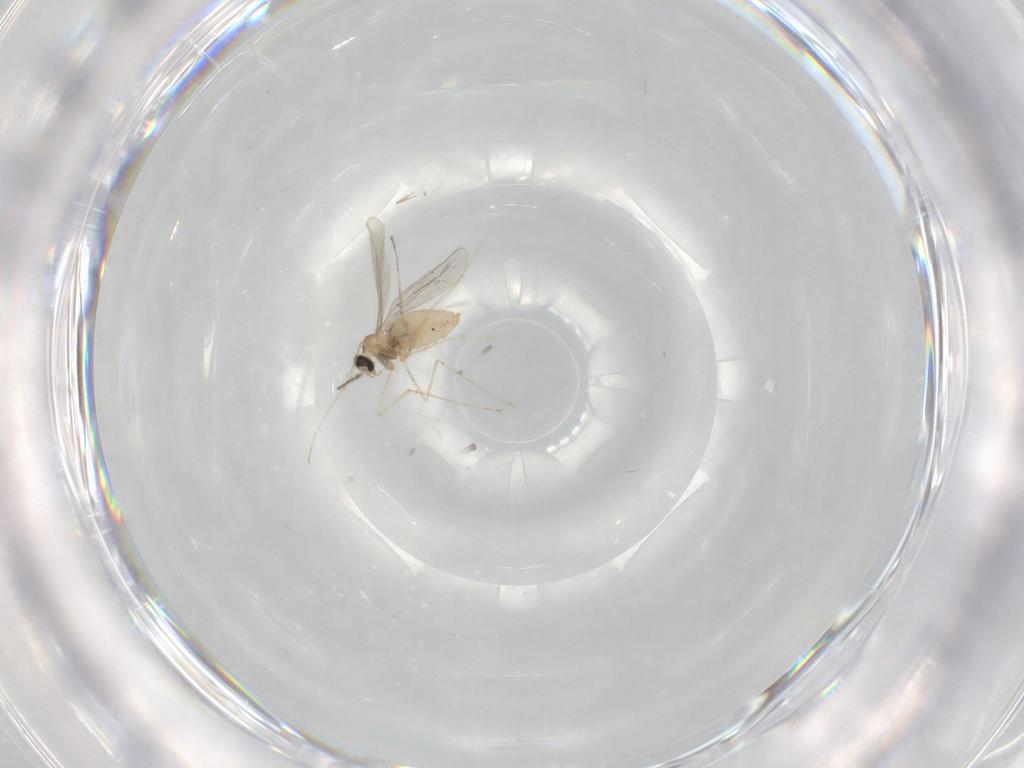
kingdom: Animalia
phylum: Arthropoda
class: Insecta
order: Diptera
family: Cecidomyiidae
